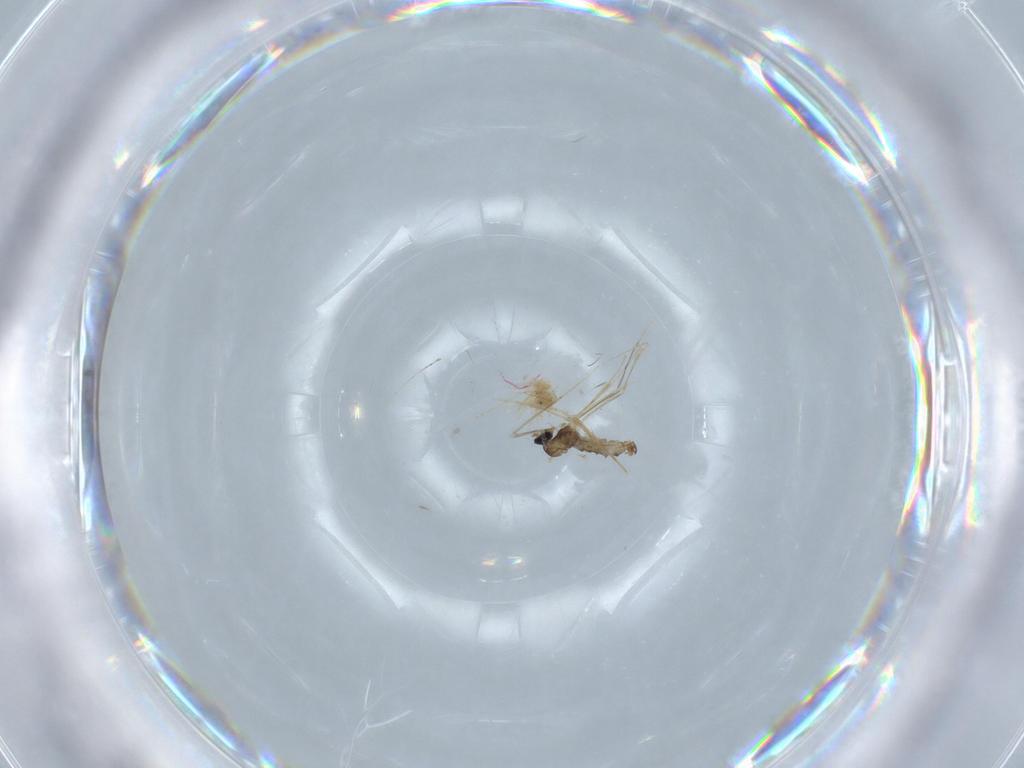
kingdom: Animalia
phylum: Arthropoda
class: Insecta
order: Diptera
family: Cecidomyiidae
